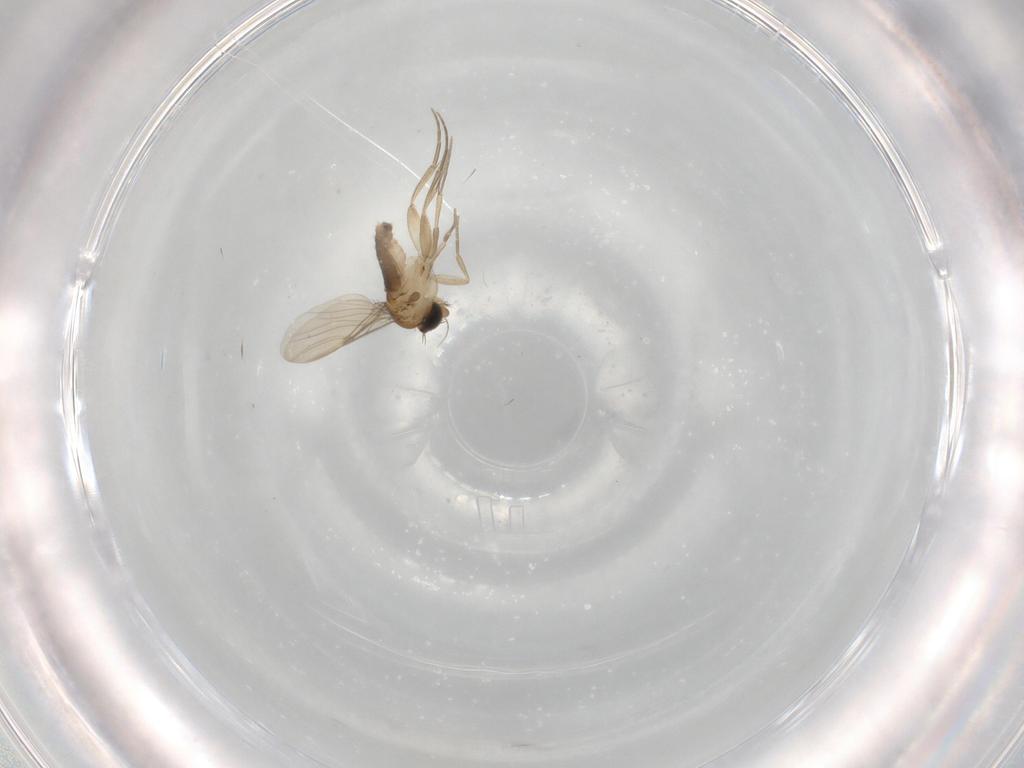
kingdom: Animalia
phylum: Arthropoda
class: Insecta
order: Diptera
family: Phoridae
